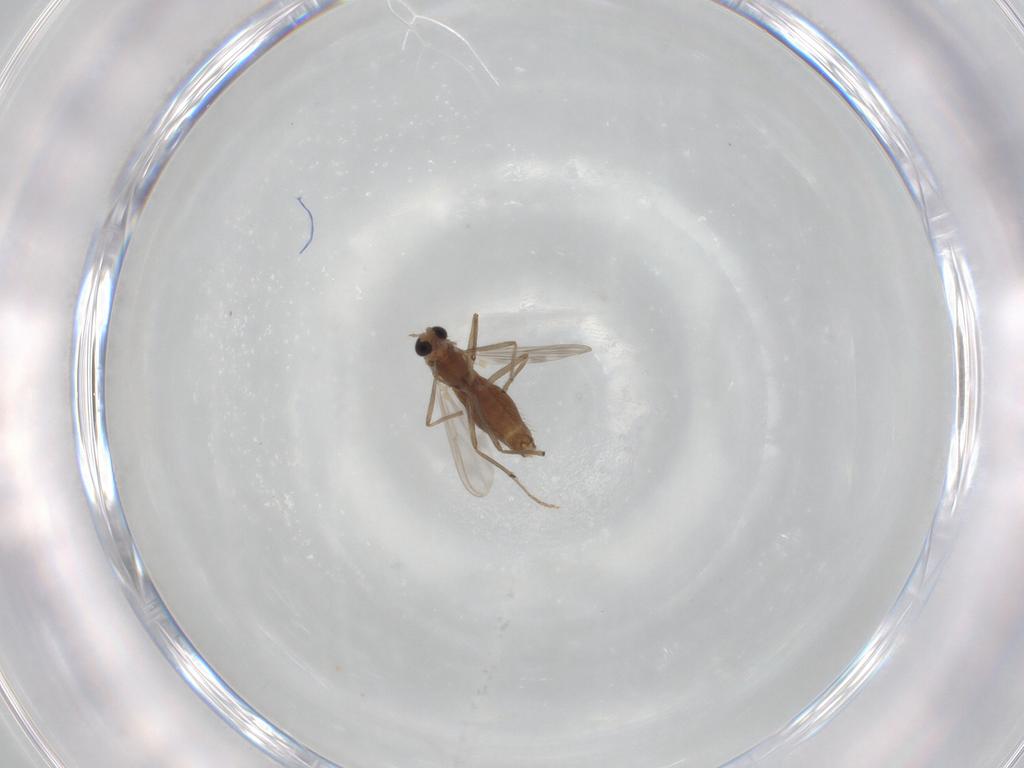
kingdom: Animalia
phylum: Arthropoda
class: Insecta
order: Diptera
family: Chironomidae
